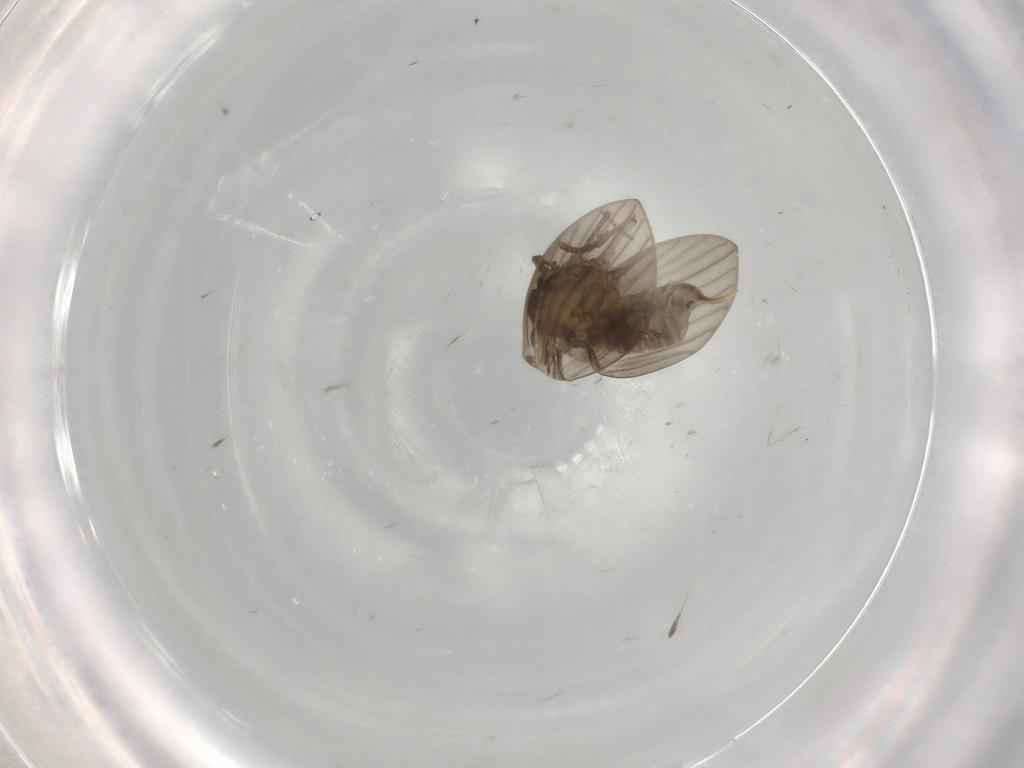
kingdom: Animalia
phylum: Arthropoda
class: Insecta
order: Diptera
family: Psychodidae
